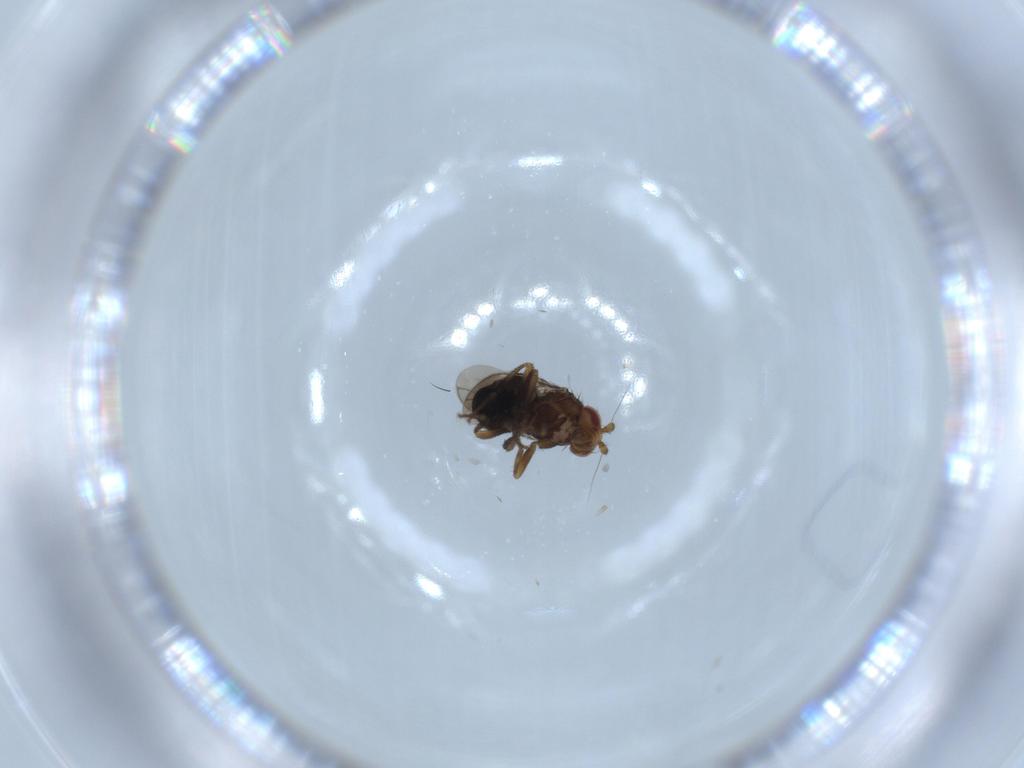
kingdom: Animalia
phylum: Arthropoda
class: Insecta
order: Diptera
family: Sphaeroceridae
